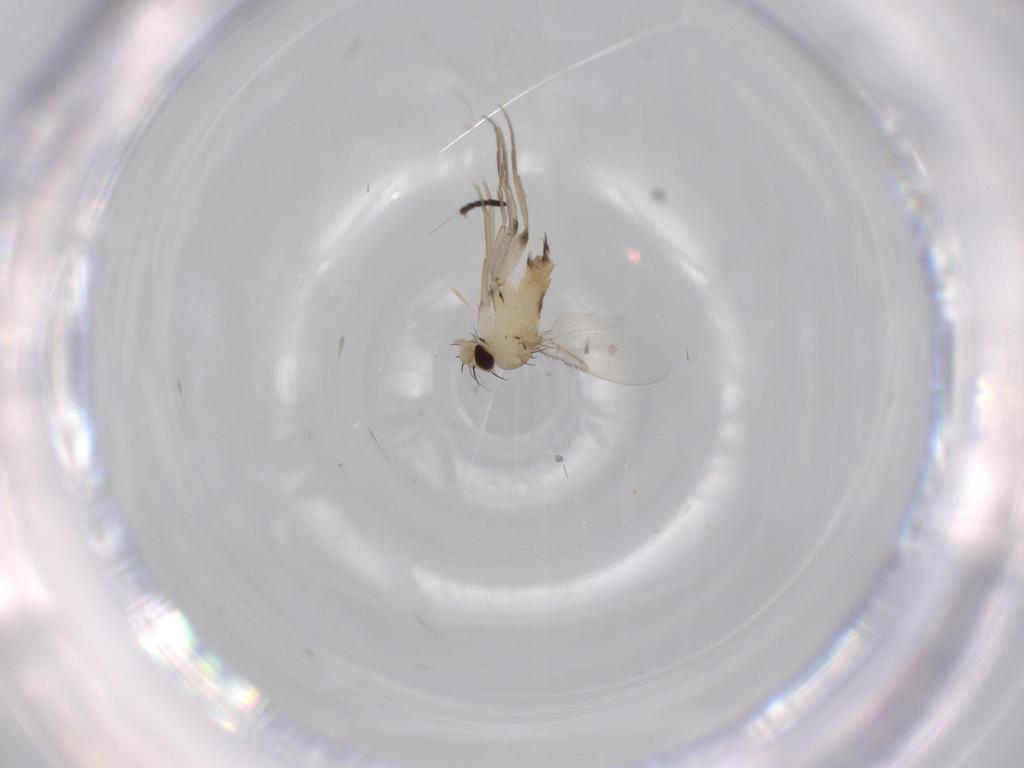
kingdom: Animalia
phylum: Arthropoda
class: Insecta
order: Diptera
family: Phoridae
